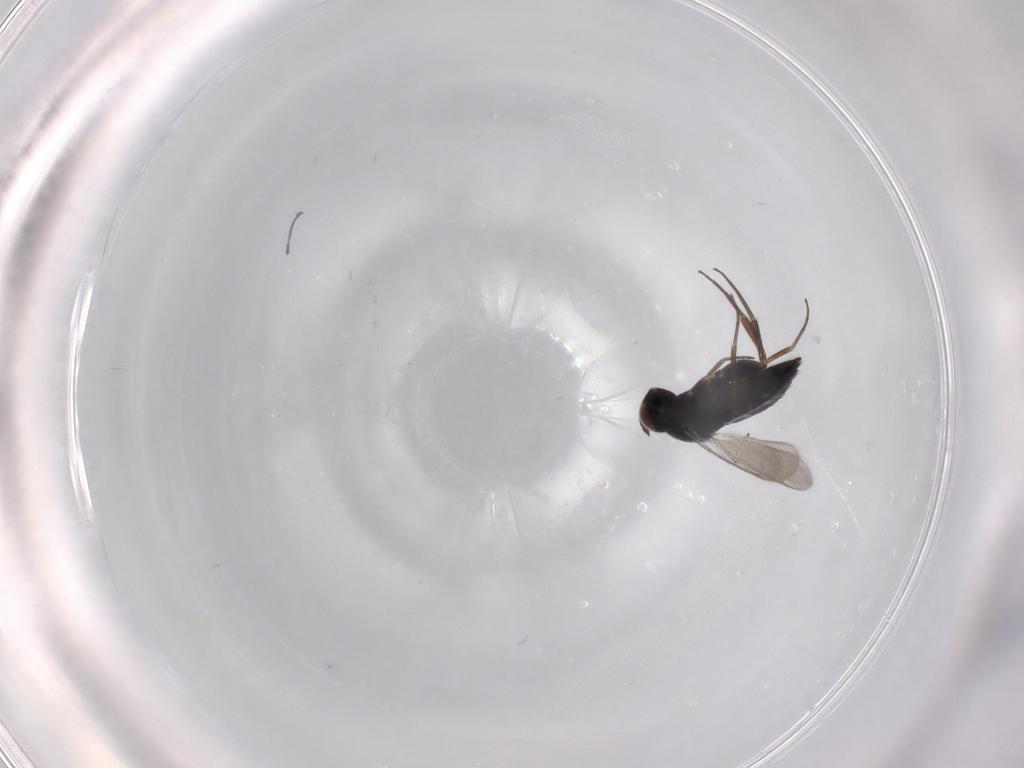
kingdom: Animalia
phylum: Arthropoda
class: Insecta
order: Hymenoptera
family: Eulophidae
